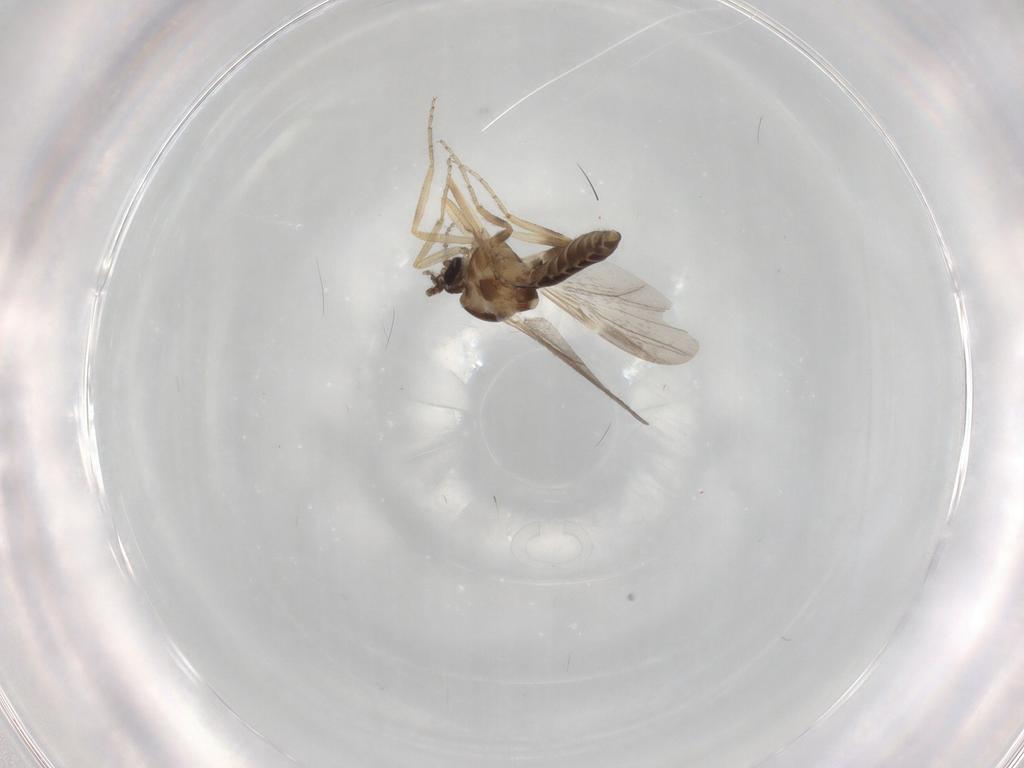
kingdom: Animalia
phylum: Arthropoda
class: Insecta
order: Diptera
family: Ceratopogonidae
